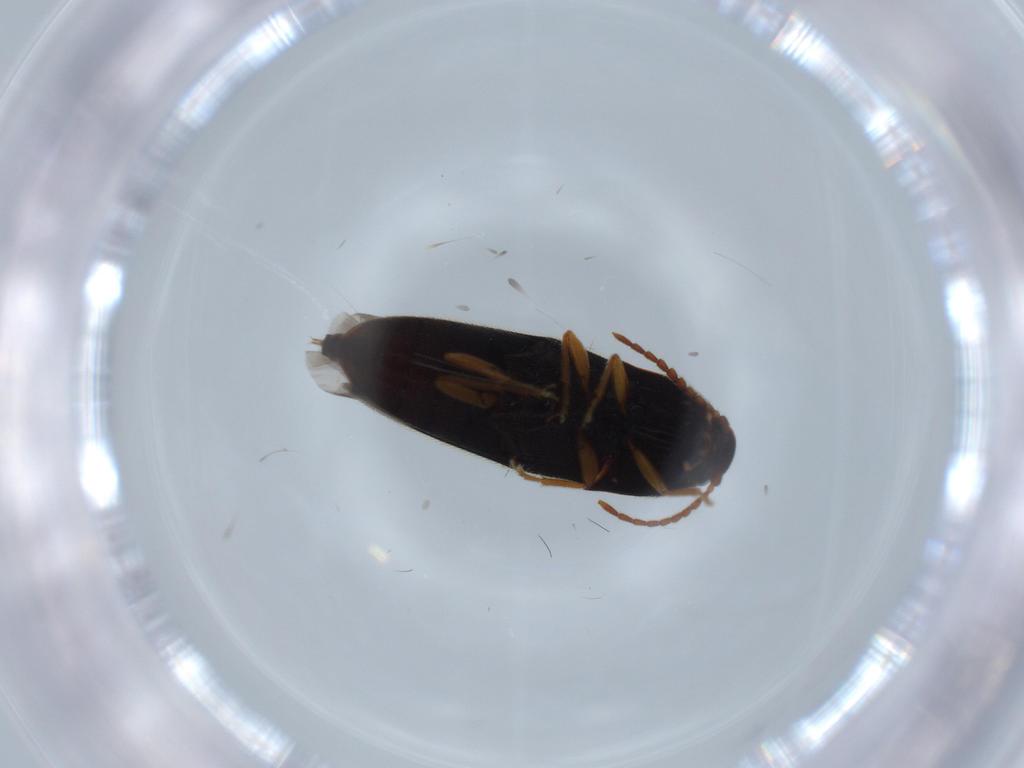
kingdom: Animalia
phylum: Arthropoda
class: Insecta
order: Coleoptera
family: Elateridae
